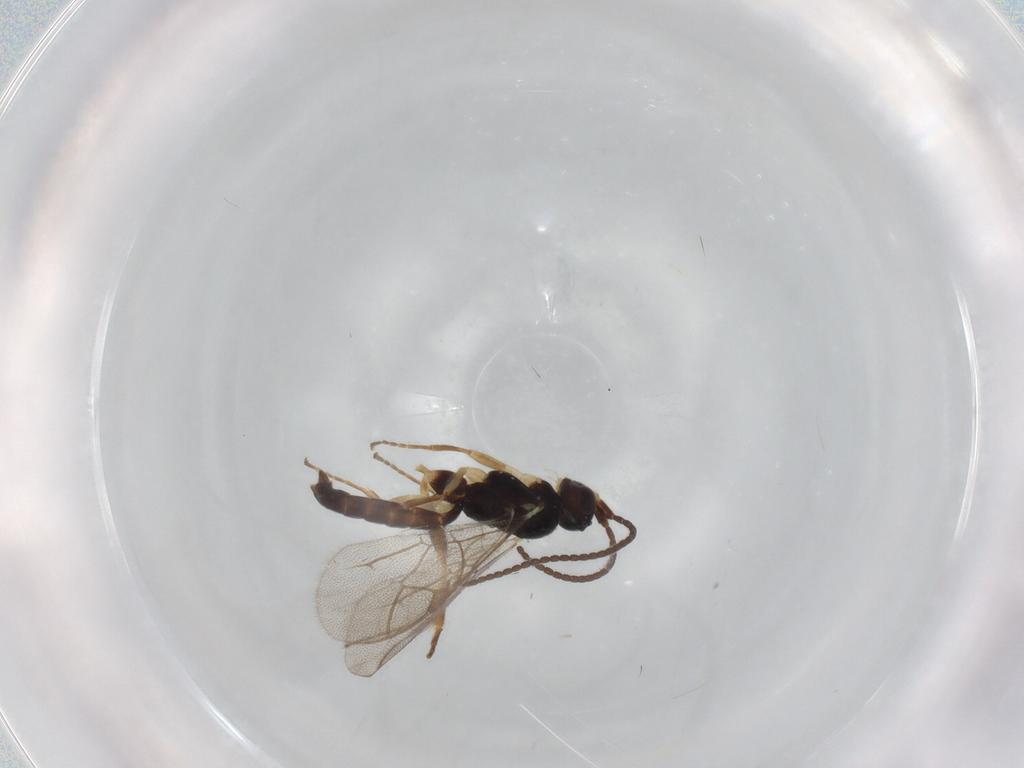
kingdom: Animalia
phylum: Arthropoda
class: Insecta
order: Hymenoptera
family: Ichneumonidae
